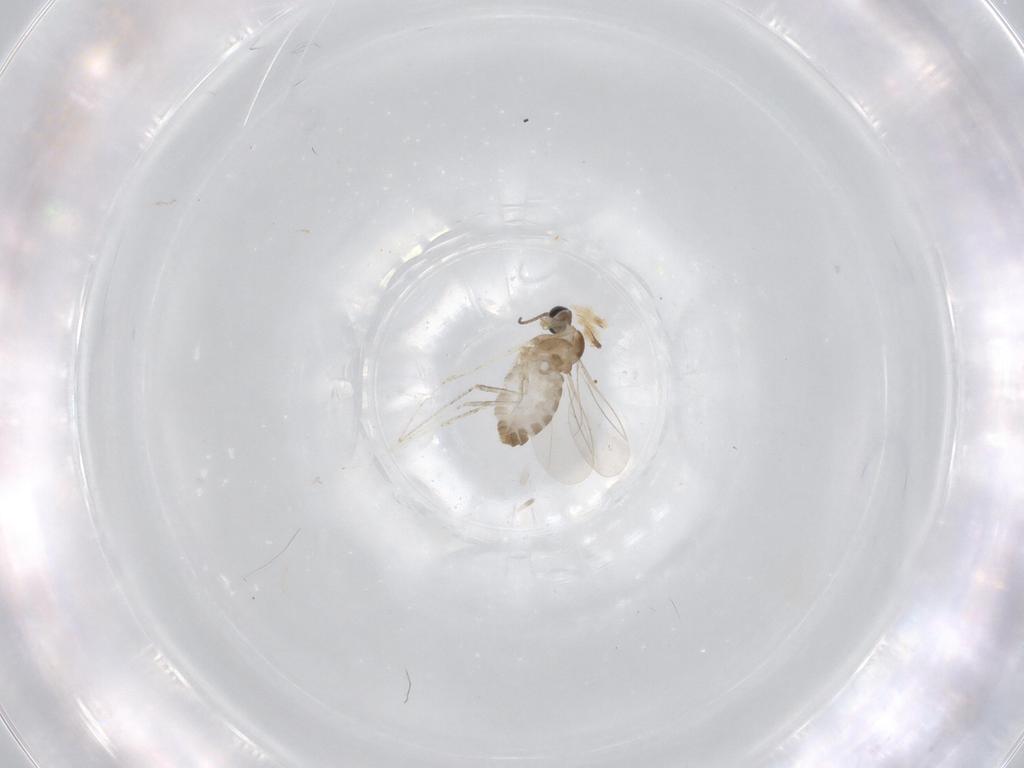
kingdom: Animalia
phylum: Arthropoda
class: Insecta
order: Diptera
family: Cecidomyiidae
